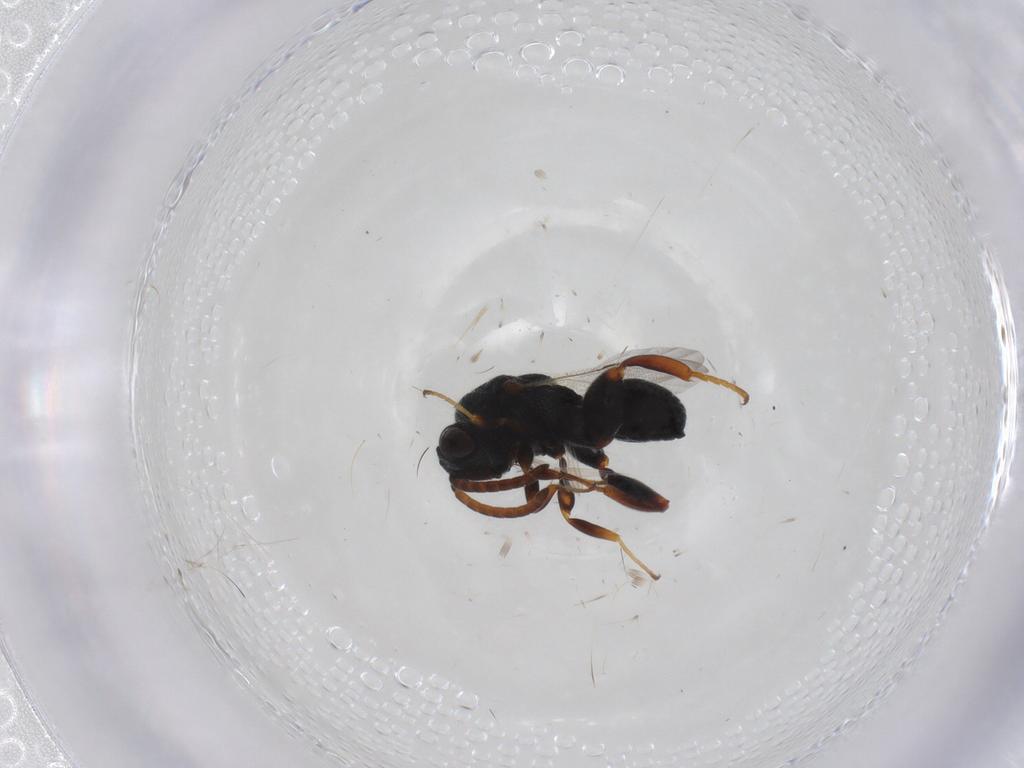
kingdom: Animalia
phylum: Arthropoda
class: Insecta
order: Hymenoptera
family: Chalcididae
